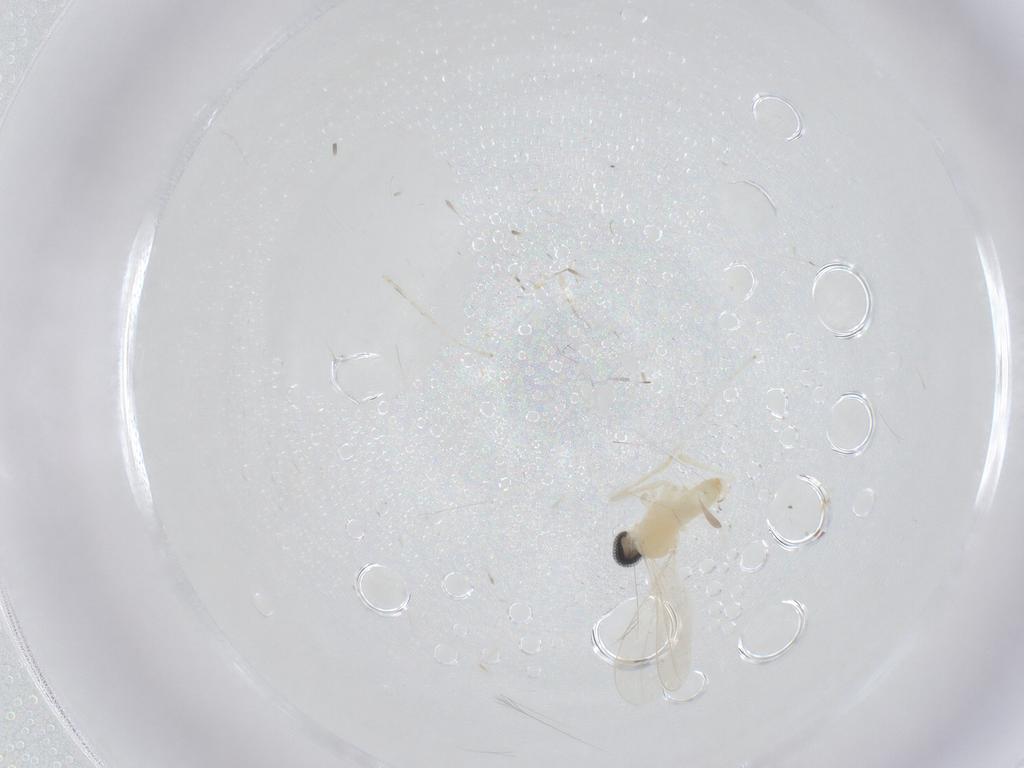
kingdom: Animalia
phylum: Arthropoda
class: Insecta
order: Diptera
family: Cecidomyiidae
